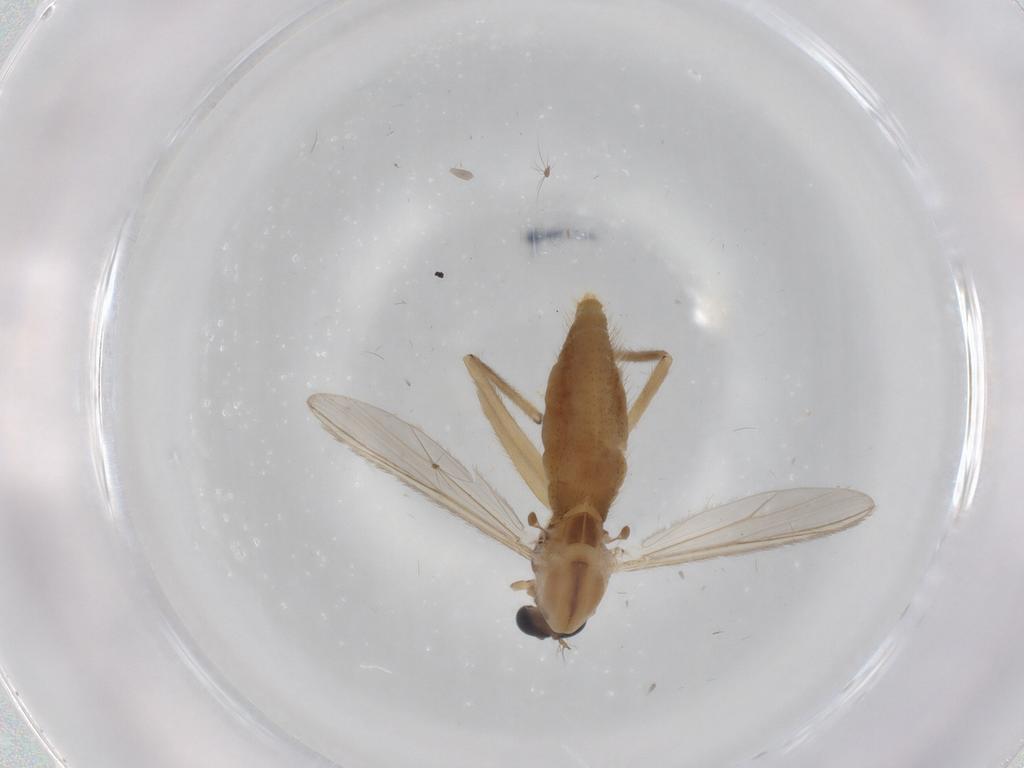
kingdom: Animalia
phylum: Arthropoda
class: Insecta
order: Diptera
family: Chironomidae
